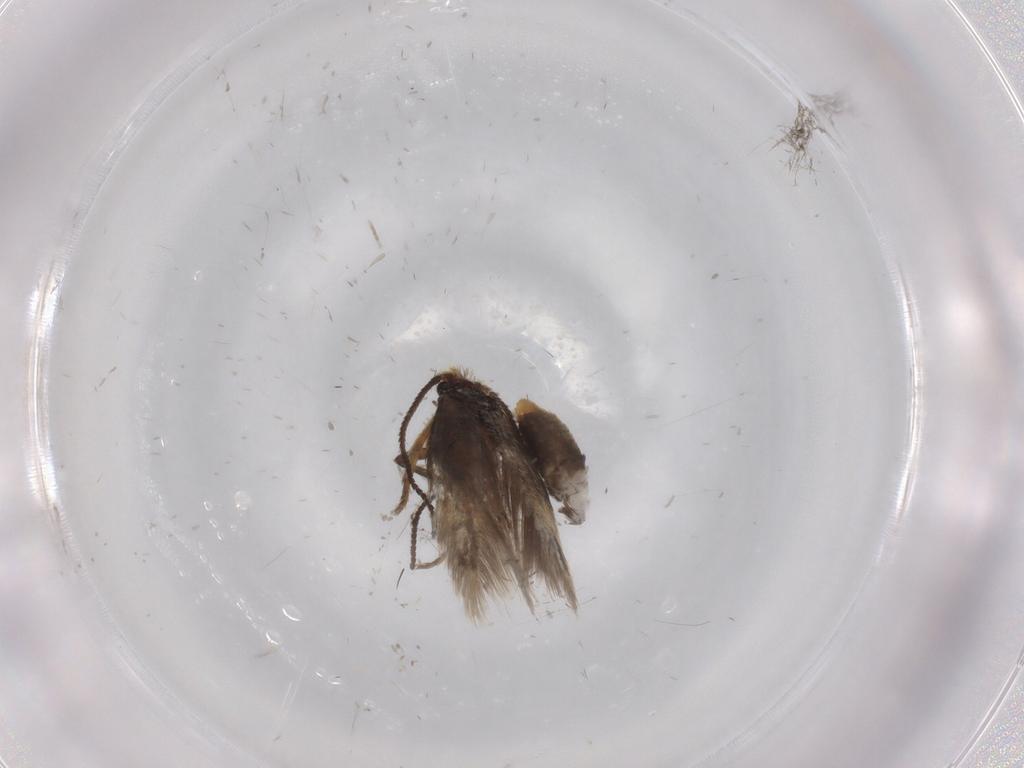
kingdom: Animalia
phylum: Arthropoda
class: Insecta
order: Lepidoptera
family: Nepticulidae
